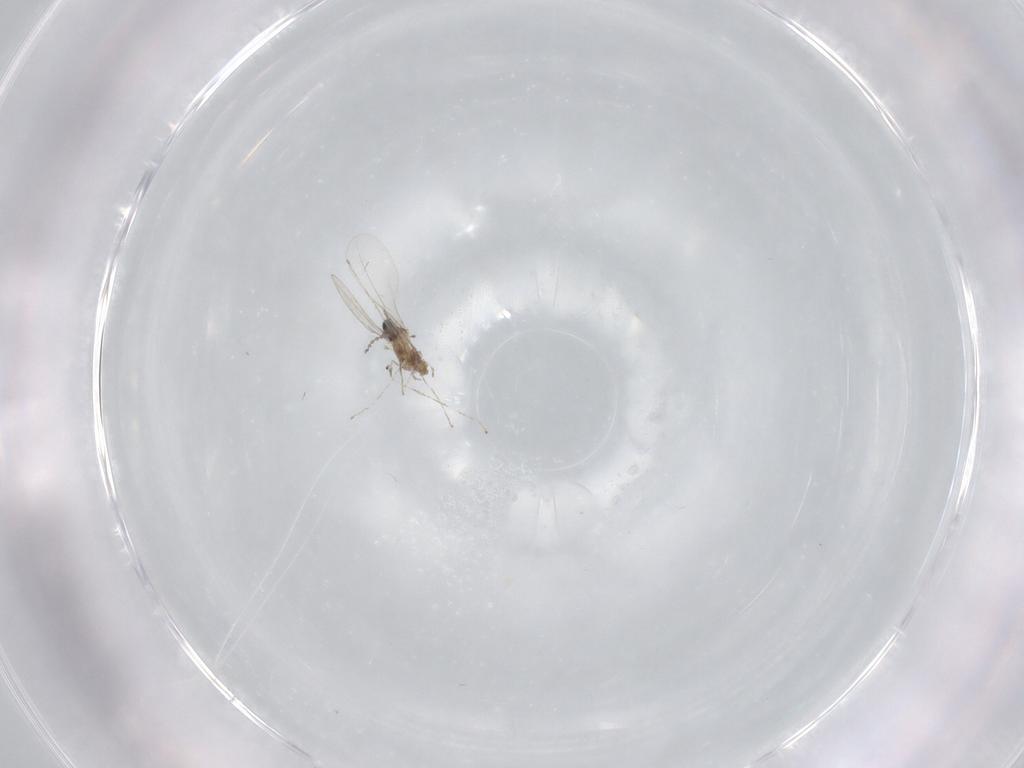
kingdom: Animalia
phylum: Arthropoda
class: Insecta
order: Diptera
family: Cecidomyiidae
